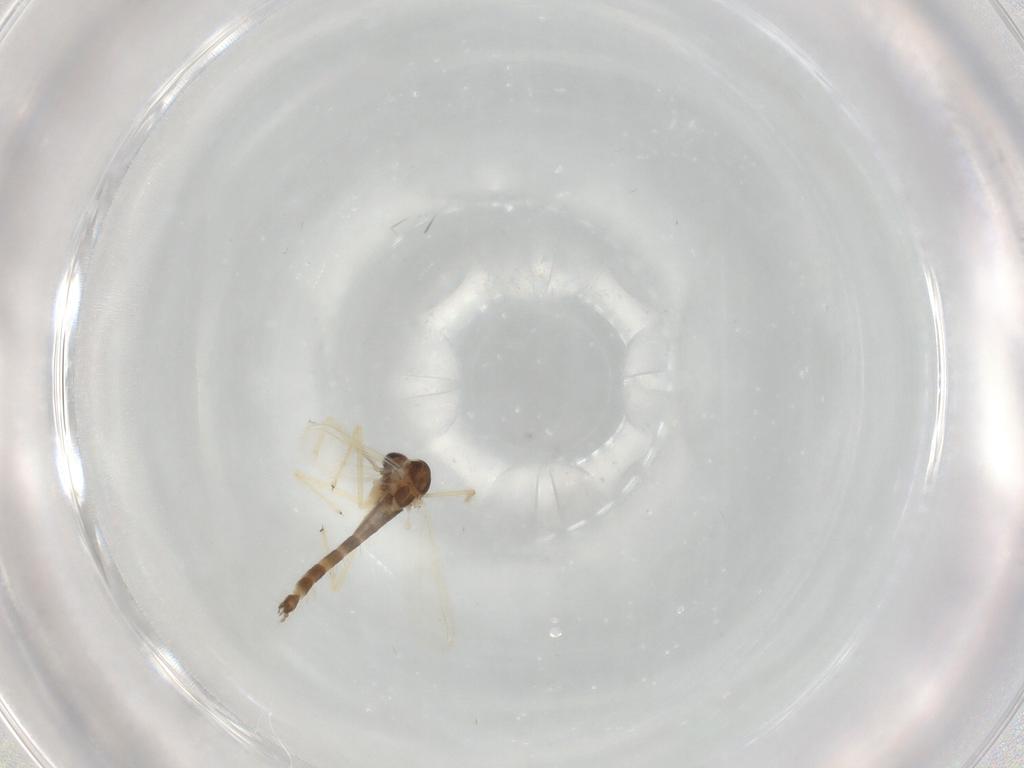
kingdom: Animalia
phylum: Arthropoda
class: Insecta
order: Diptera
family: Chironomidae
